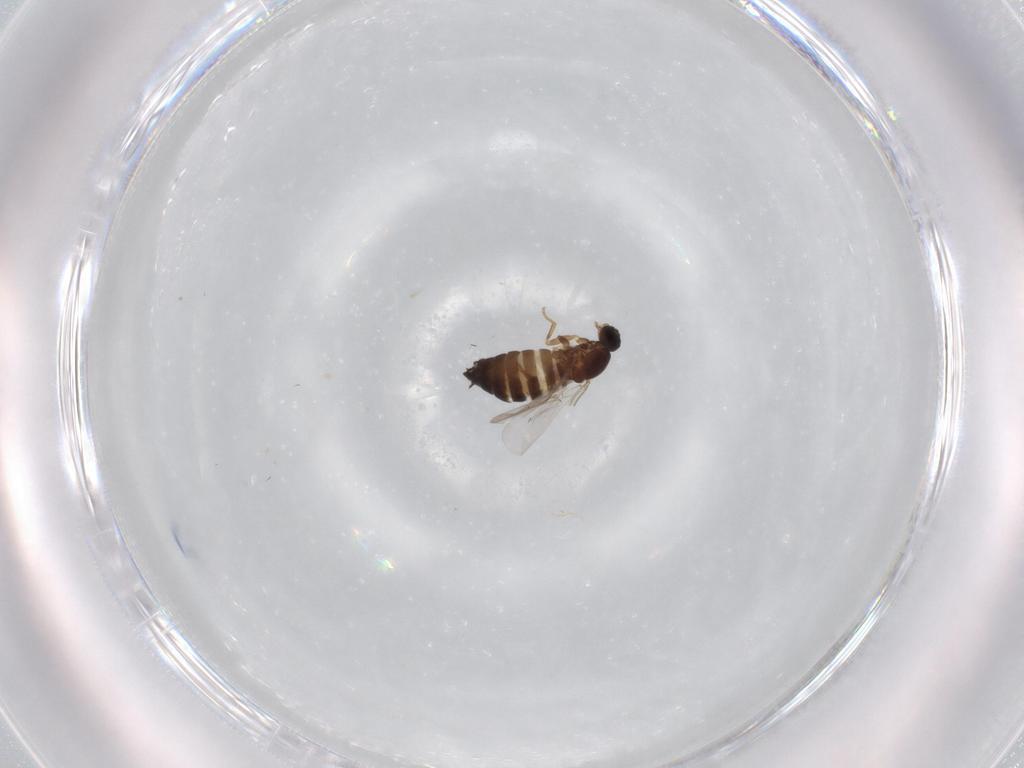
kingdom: Animalia
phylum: Arthropoda
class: Insecta
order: Diptera
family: Scatopsidae
